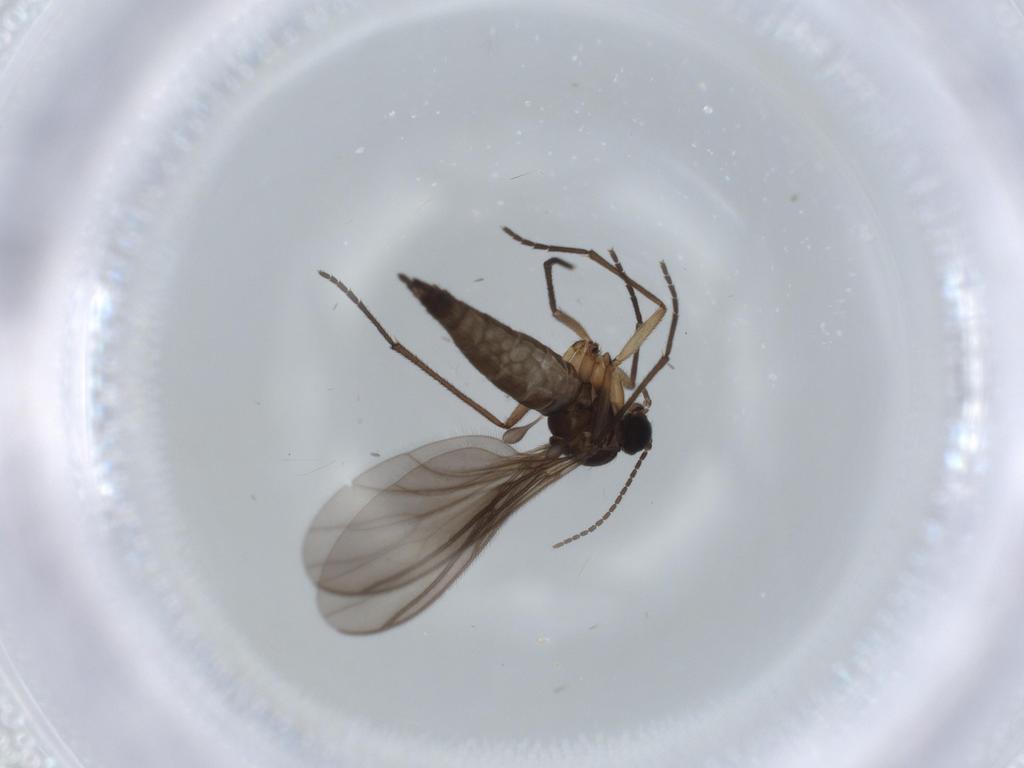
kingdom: Animalia
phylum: Arthropoda
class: Insecta
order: Diptera
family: Sciaridae
